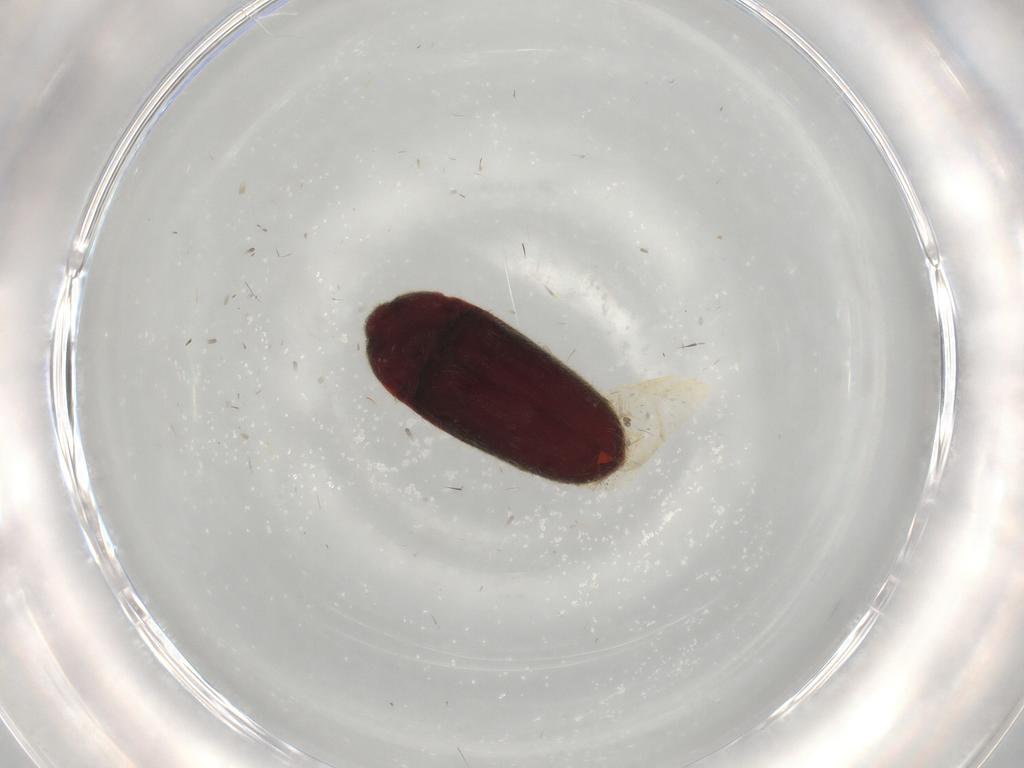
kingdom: Animalia
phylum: Arthropoda
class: Insecta
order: Coleoptera
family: Throscidae
